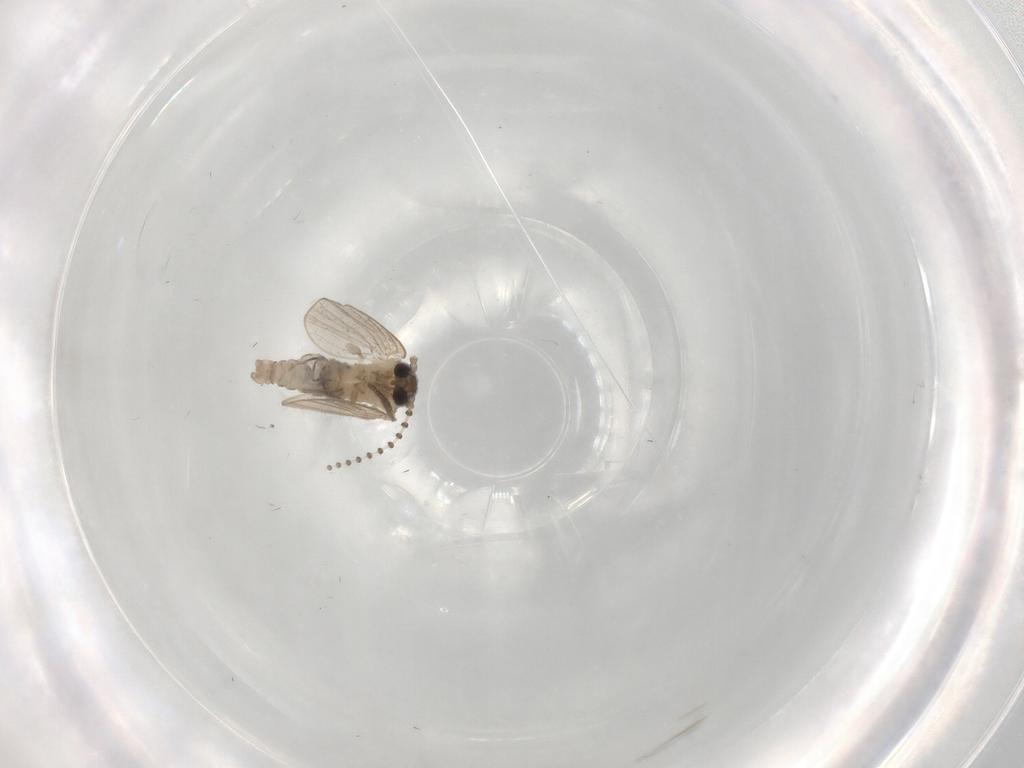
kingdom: Animalia
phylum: Arthropoda
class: Insecta
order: Diptera
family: Psychodidae
